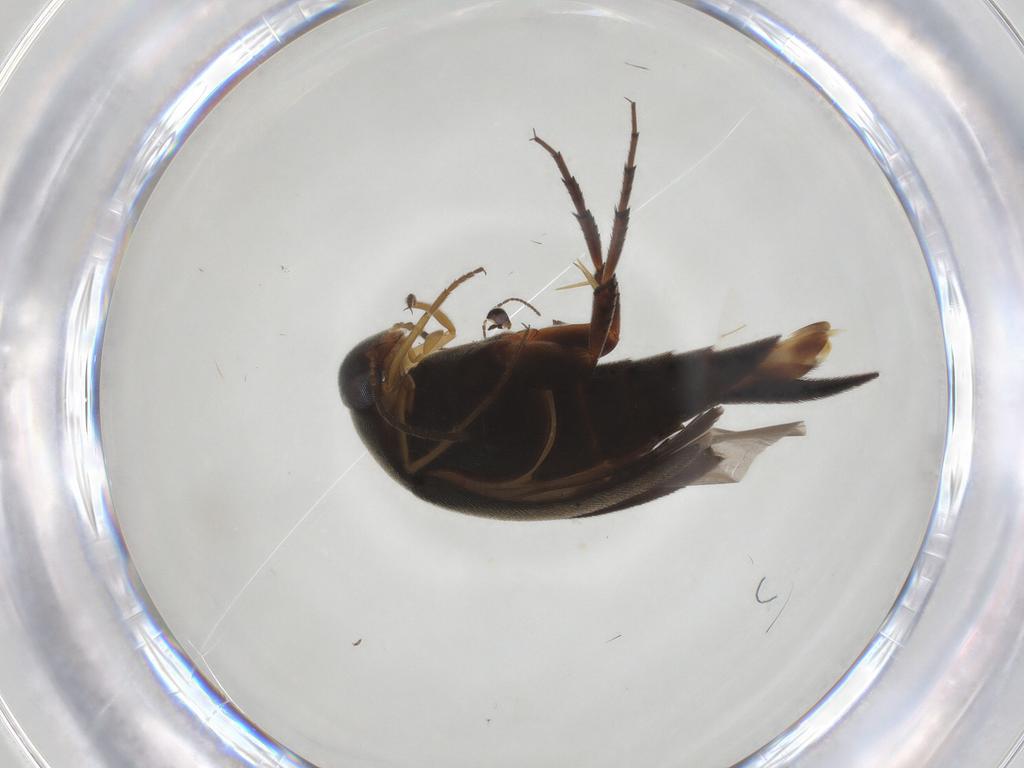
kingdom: Animalia
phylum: Arthropoda
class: Insecta
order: Coleoptera
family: Mordellidae
